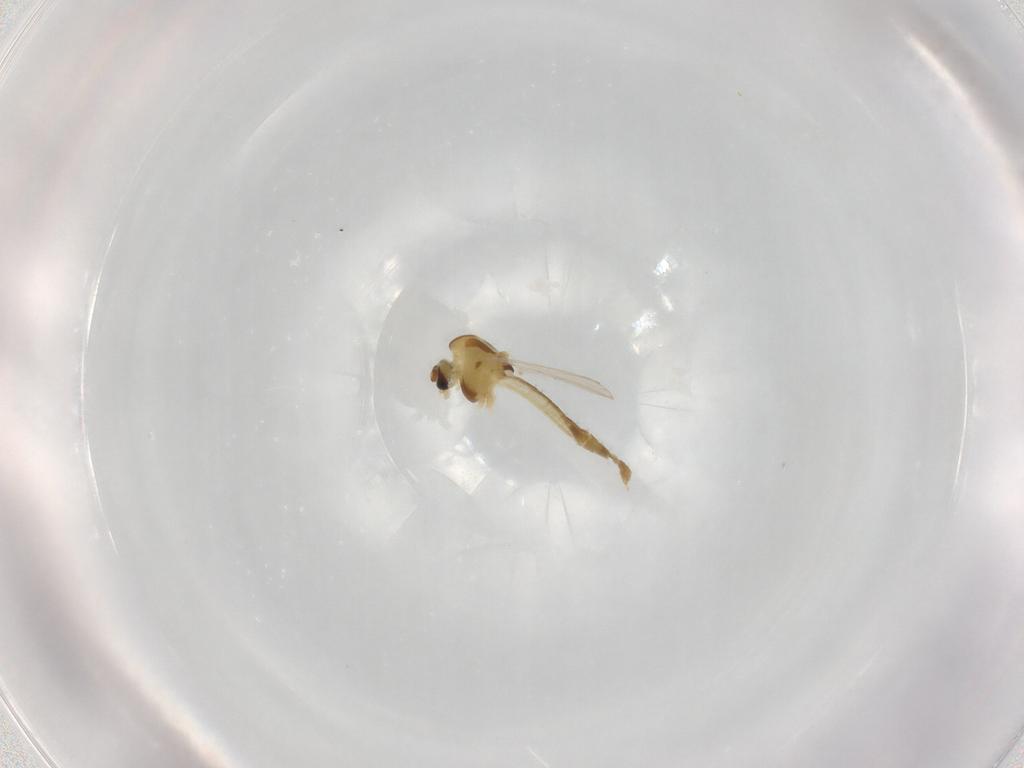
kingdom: Animalia
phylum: Arthropoda
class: Insecta
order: Diptera
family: Chironomidae
